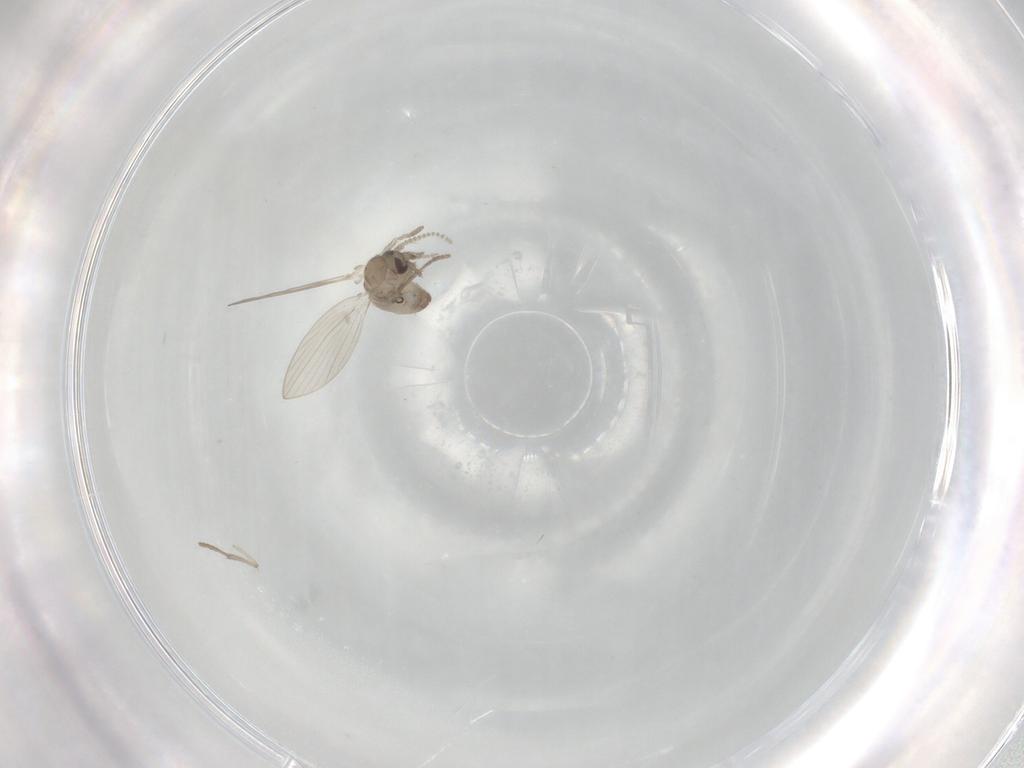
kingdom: Animalia
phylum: Arthropoda
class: Insecta
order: Diptera
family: Psychodidae
